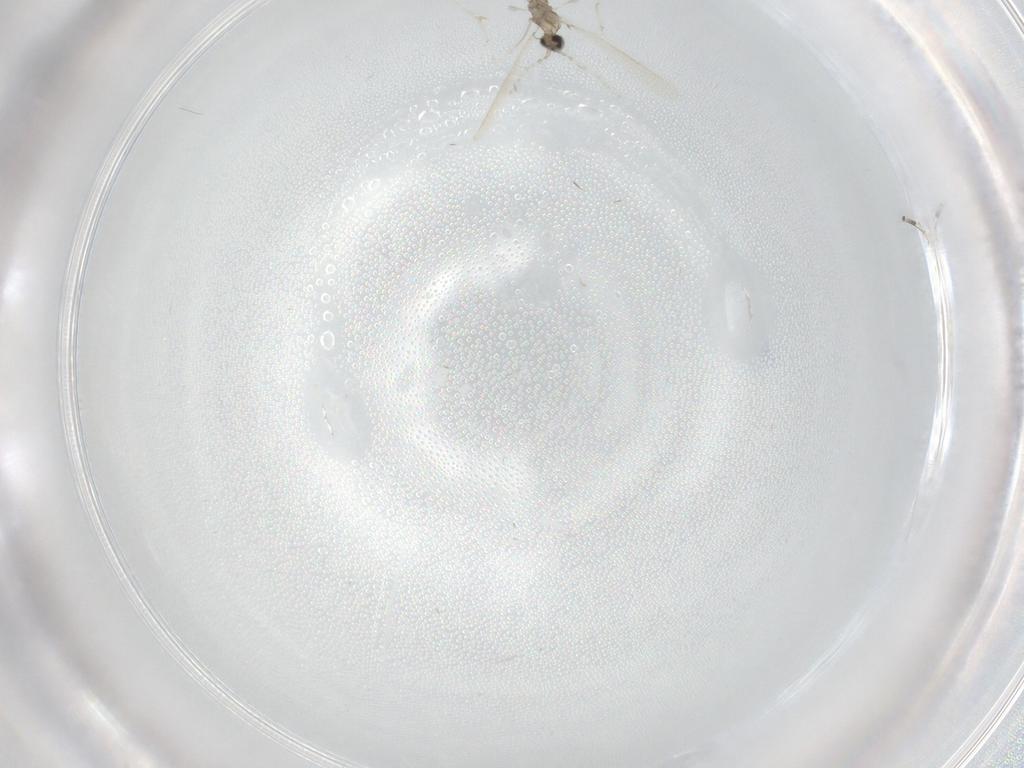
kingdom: Animalia
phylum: Arthropoda
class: Insecta
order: Diptera
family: Cecidomyiidae
